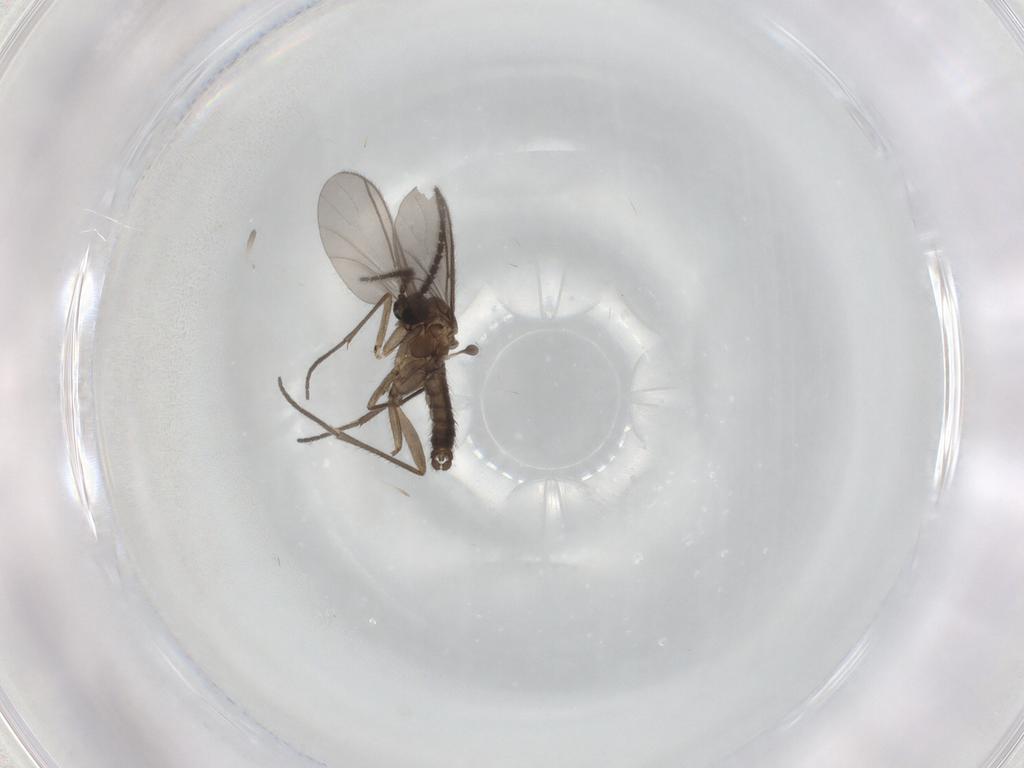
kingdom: Animalia
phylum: Arthropoda
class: Insecta
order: Diptera
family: Sciaridae
